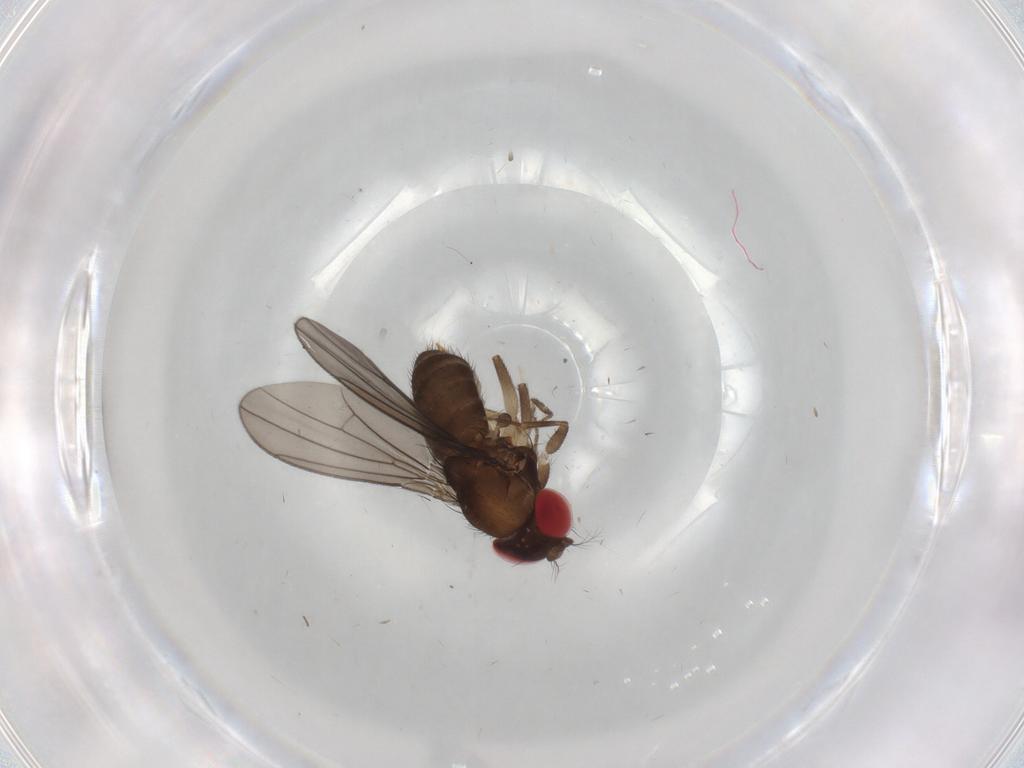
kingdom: Animalia
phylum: Arthropoda
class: Insecta
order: Diptera
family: Drosophilidae
